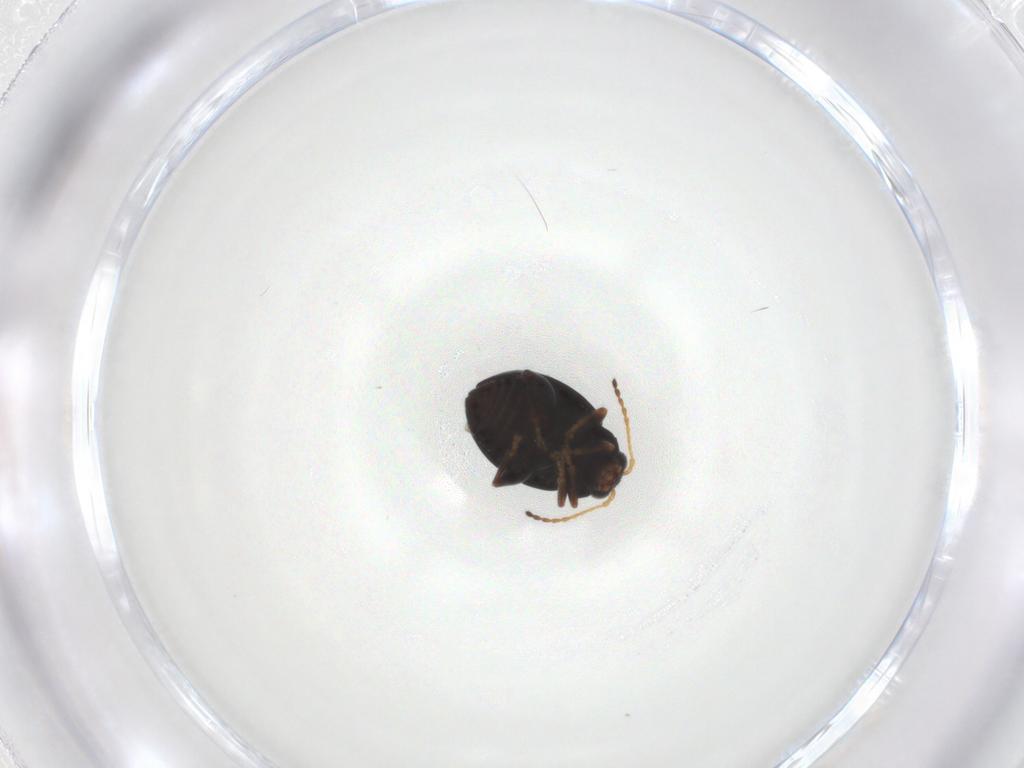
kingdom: Animalia
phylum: Arthropoda
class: Insecta
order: Coleoptera
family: Chrysomelidae
